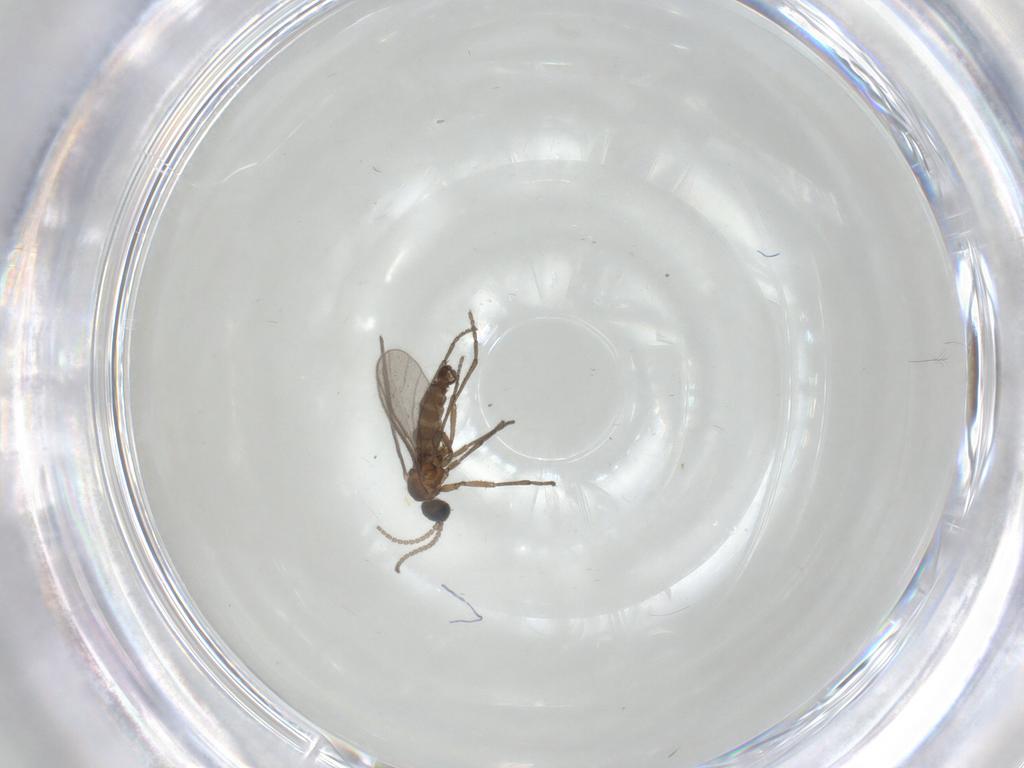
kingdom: Animalia
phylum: Arthropoda
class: Insecta
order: Diptera
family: Sciaridae
